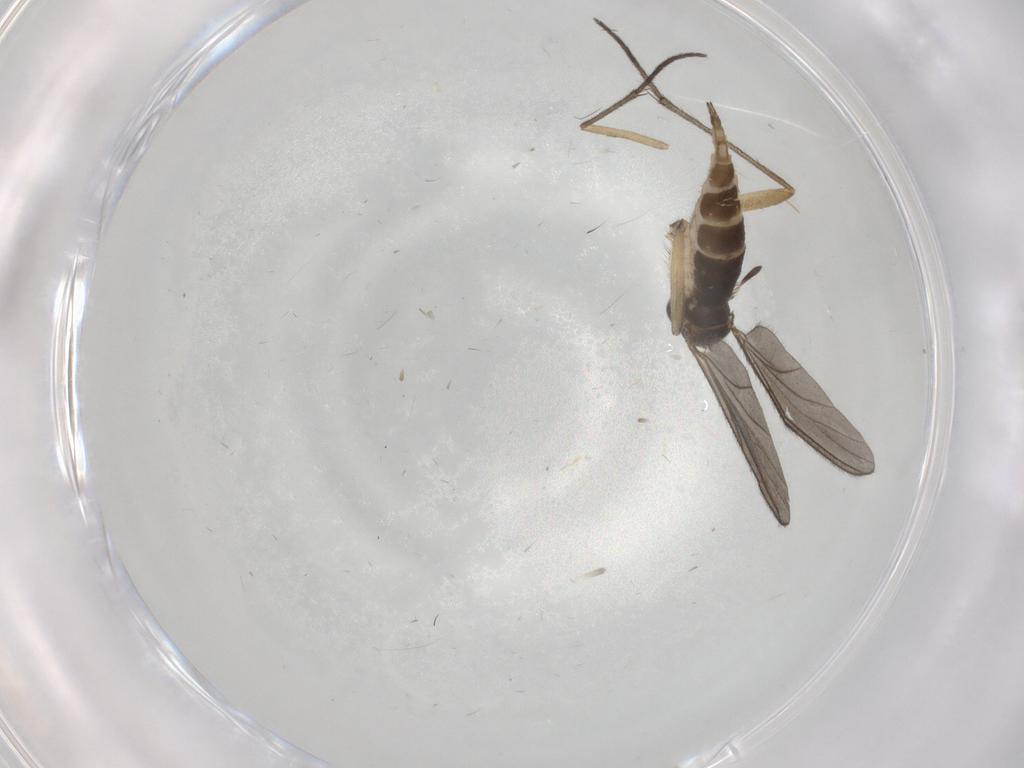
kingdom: Animalia
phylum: Arthropoda
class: Insecta
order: Diptera
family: Sciaridae
